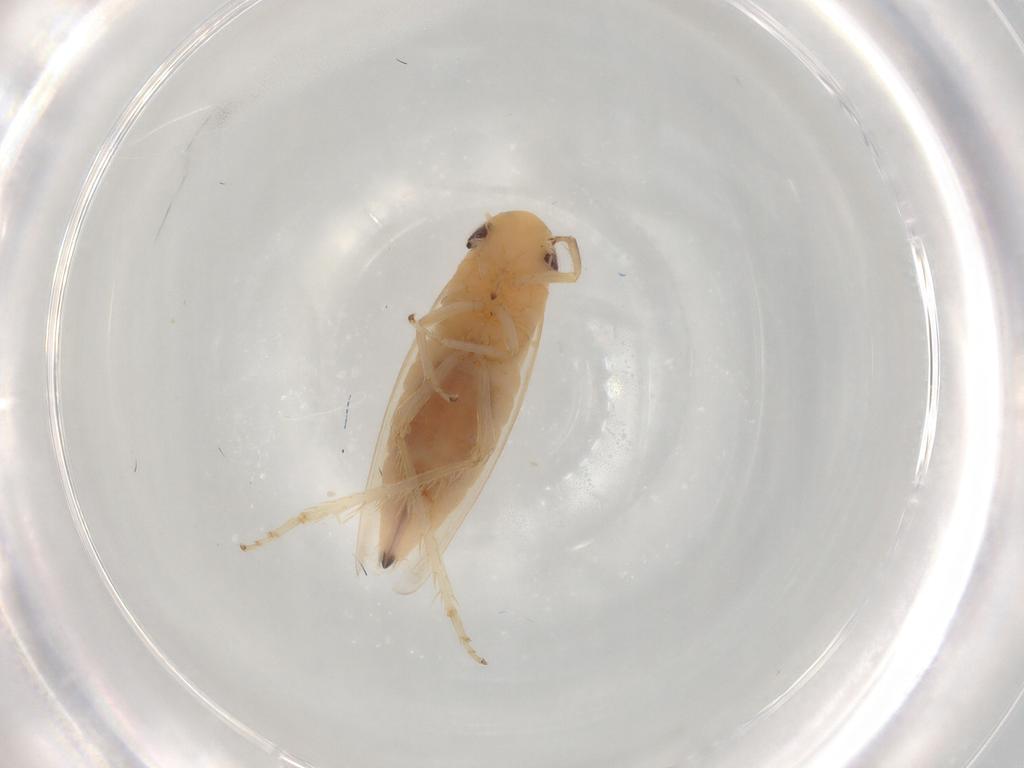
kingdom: Animalia
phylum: Arthropoda
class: Insecta
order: Hemiptera
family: Cicadellidae
